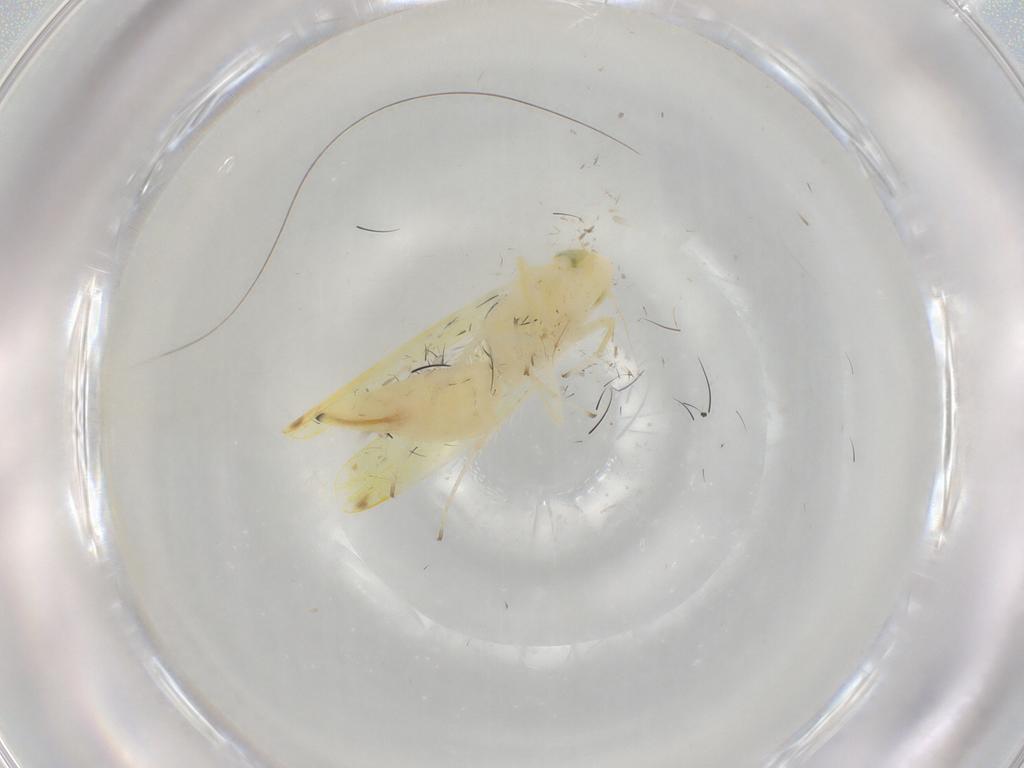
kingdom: Animalia
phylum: Arthropoda
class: Insecta
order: Hemiptera
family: Cicadellidae
